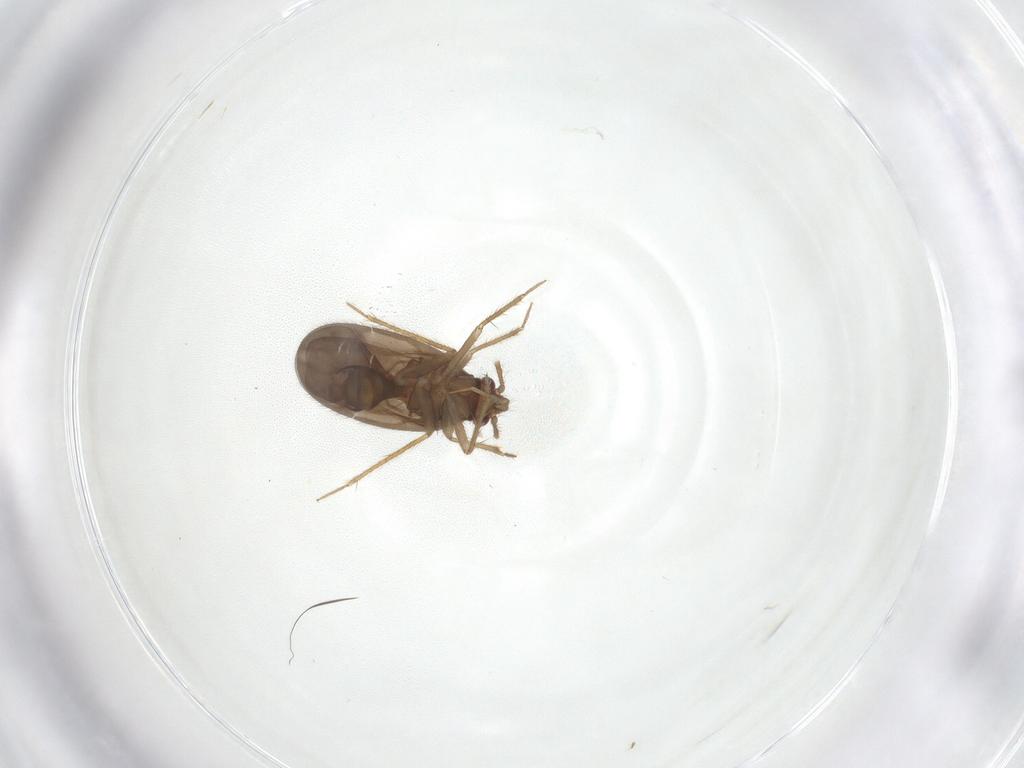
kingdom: Animalia
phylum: Arthropoda
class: Insecta
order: Hemiptera
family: Ceratocombidae
